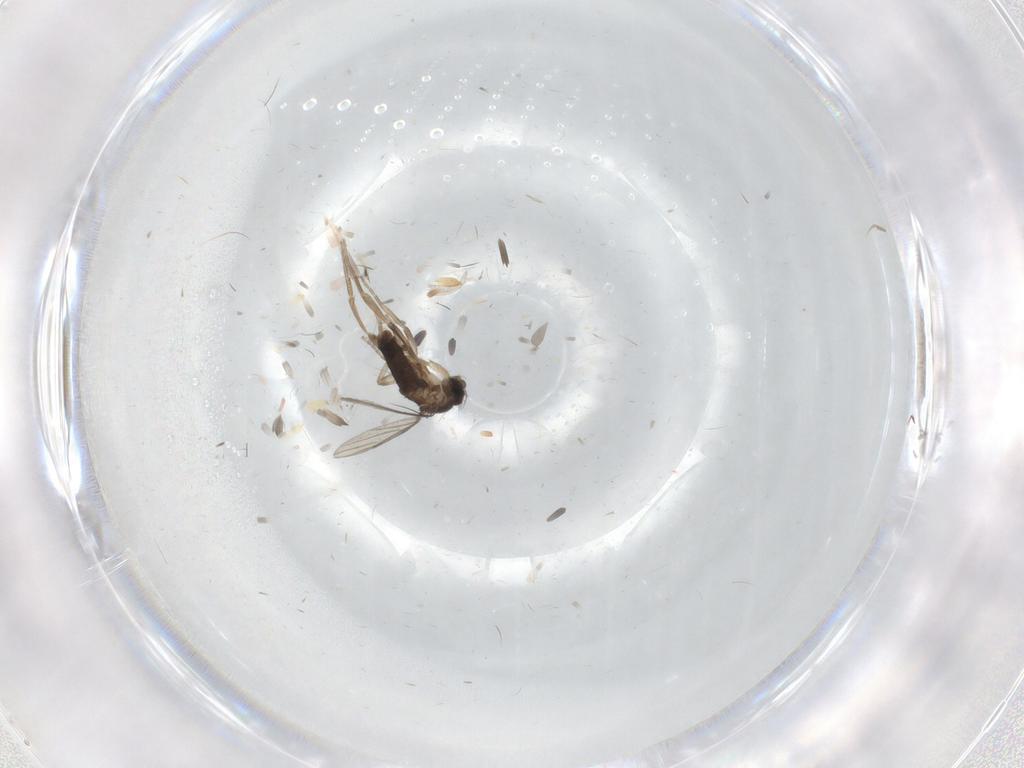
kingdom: Animalia
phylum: Arthropoda
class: Insecta
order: Diptera
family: Phoridae
